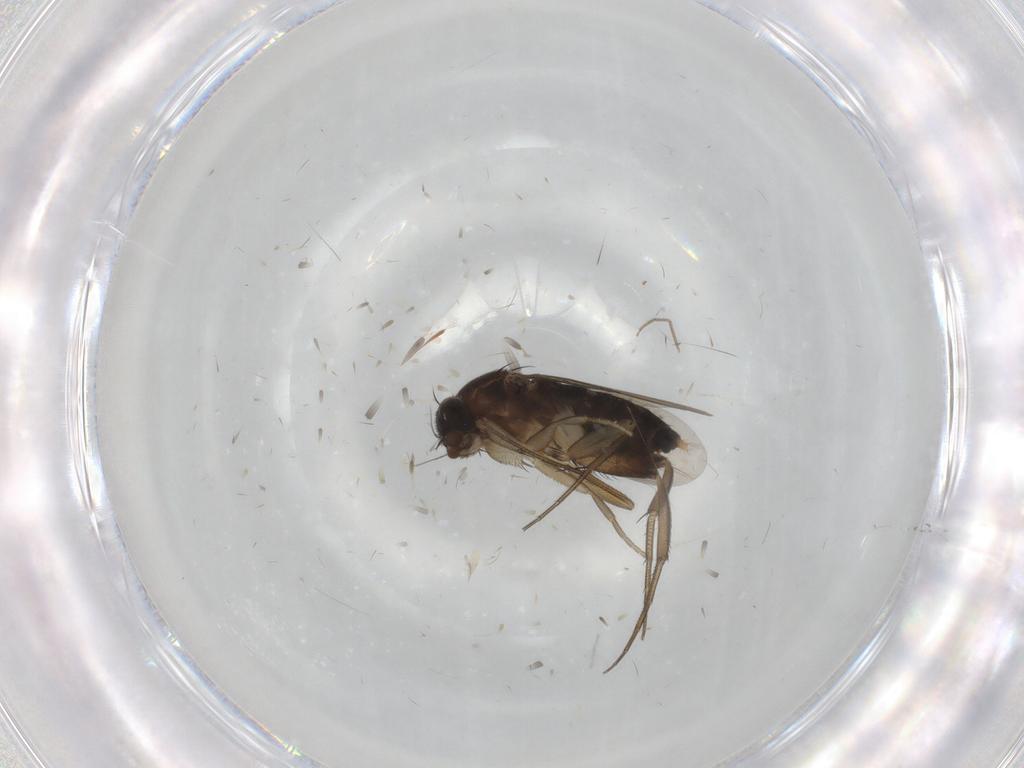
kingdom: Animalia
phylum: Arthropoda
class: Insecta
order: Diptera
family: Phoridae
